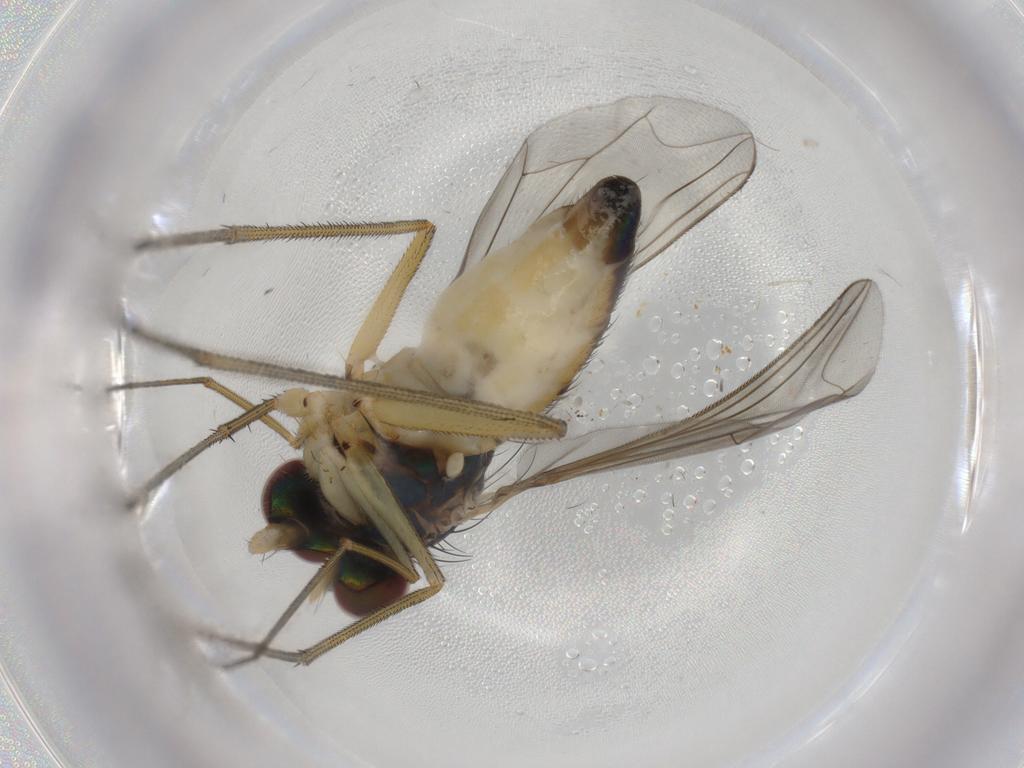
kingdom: Animalia
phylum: Arthropoda
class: Insecta
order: Diptera
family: Dolichopodidae
